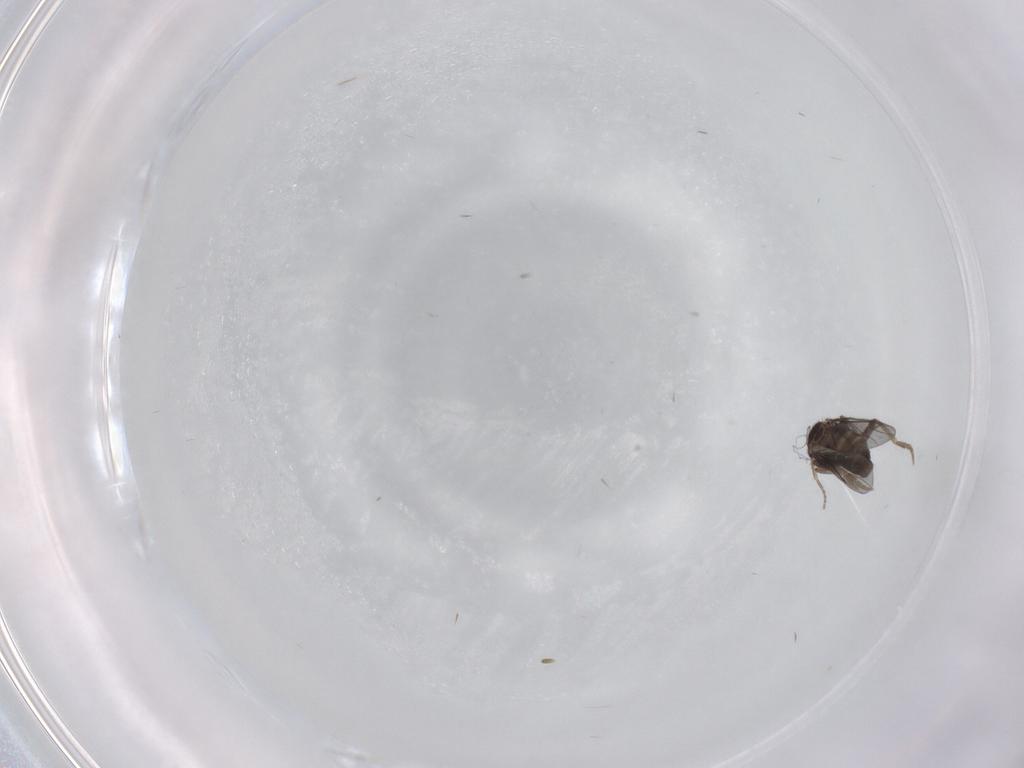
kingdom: Animalia
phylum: Arthropoda
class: Insecta
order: Diptera
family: Phoridae
